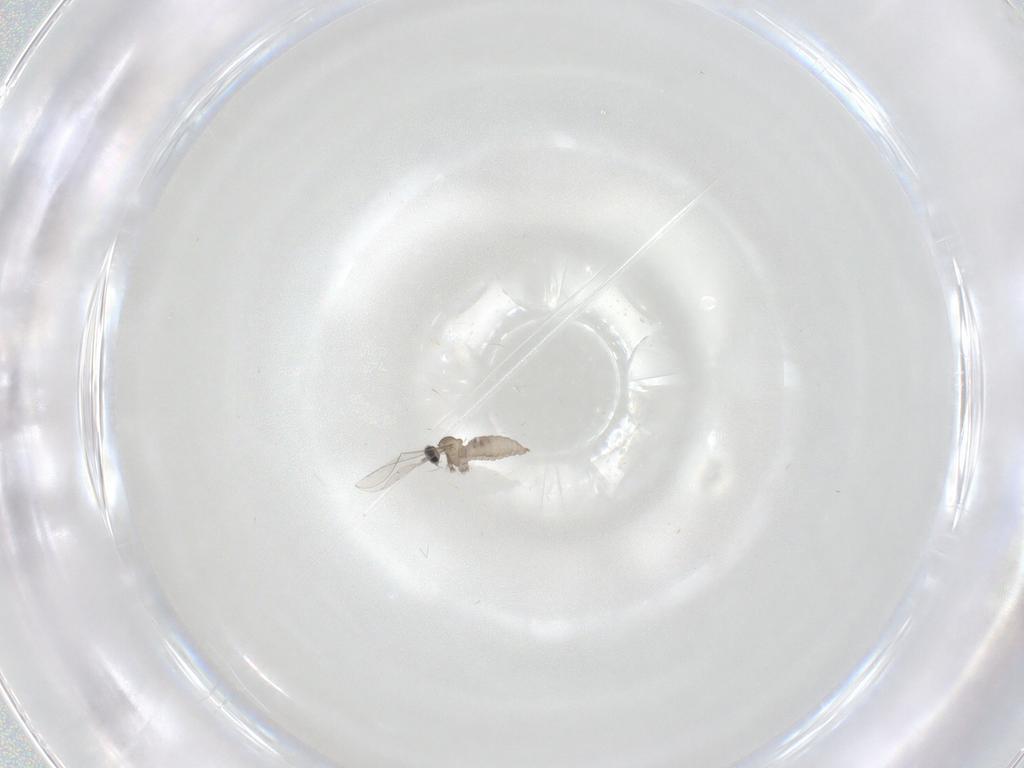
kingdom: Animalia
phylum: Arthropoda
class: Insecta
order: Diptera
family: Cecidomyiidae
